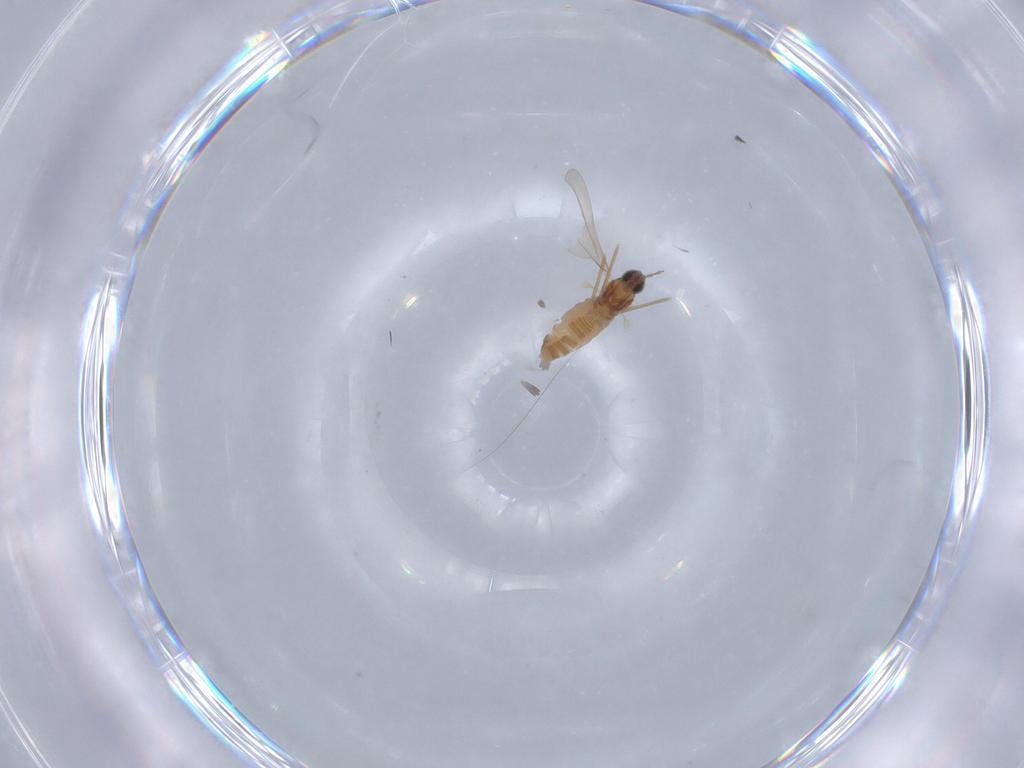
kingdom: Animalia
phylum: Arthropoda
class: Insecta
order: Diptera
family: Cecidomyiidae
